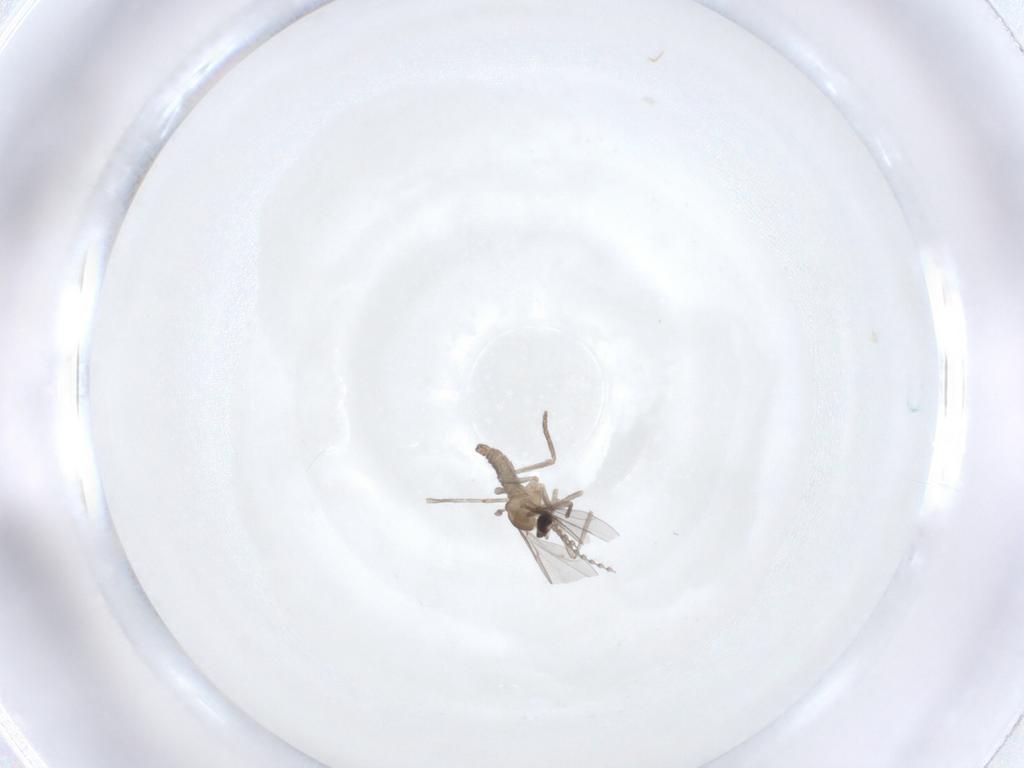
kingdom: Animalia
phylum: Arthropoda
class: Insecta
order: Diptera
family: Cecidomyiidae
